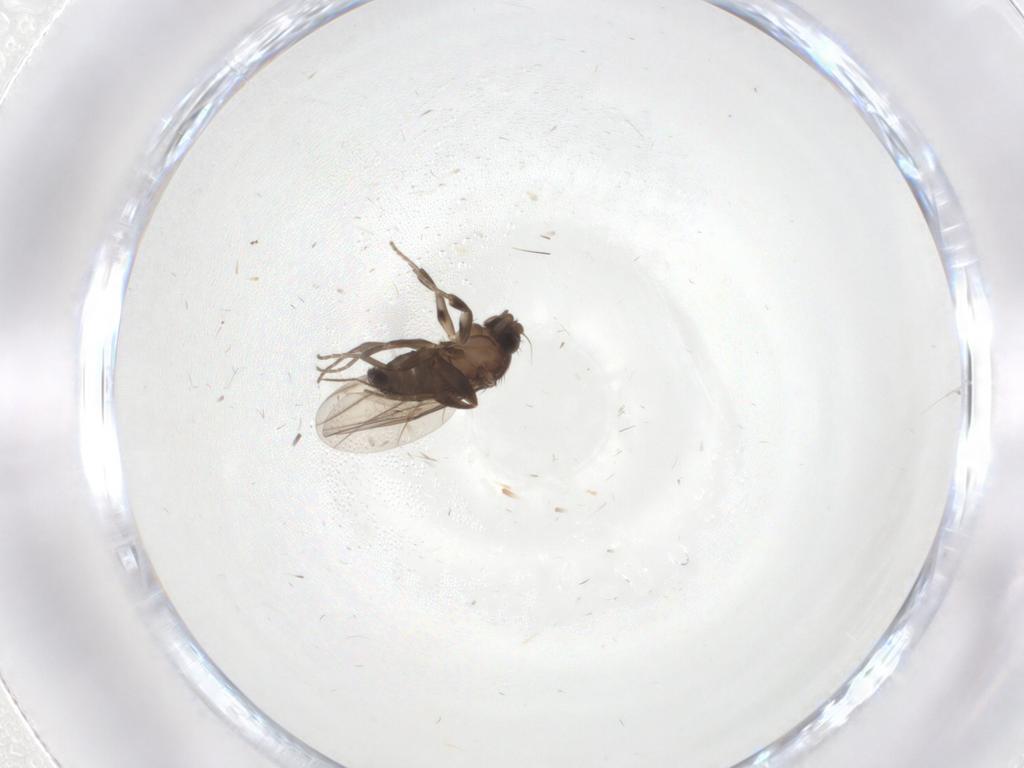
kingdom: Animalia
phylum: Arthropoda
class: Insecta
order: Diptera
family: Phoridae
